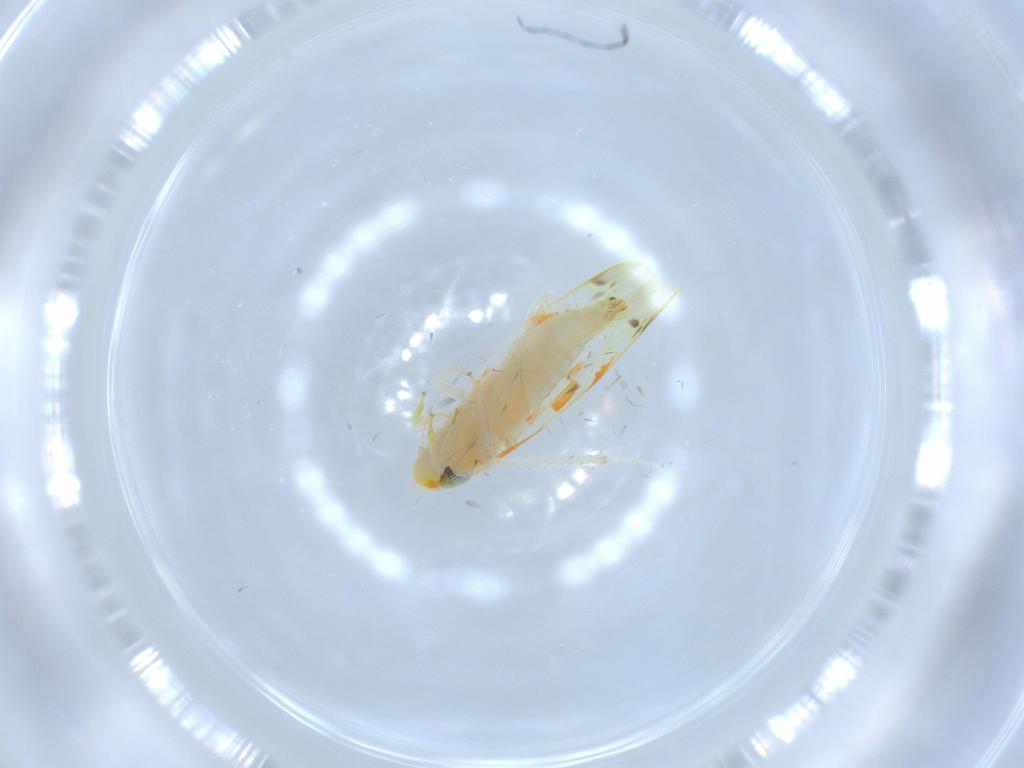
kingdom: Animalia
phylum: Arthropoda
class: Insecta
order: Hemiptera
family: Cicadellidae
